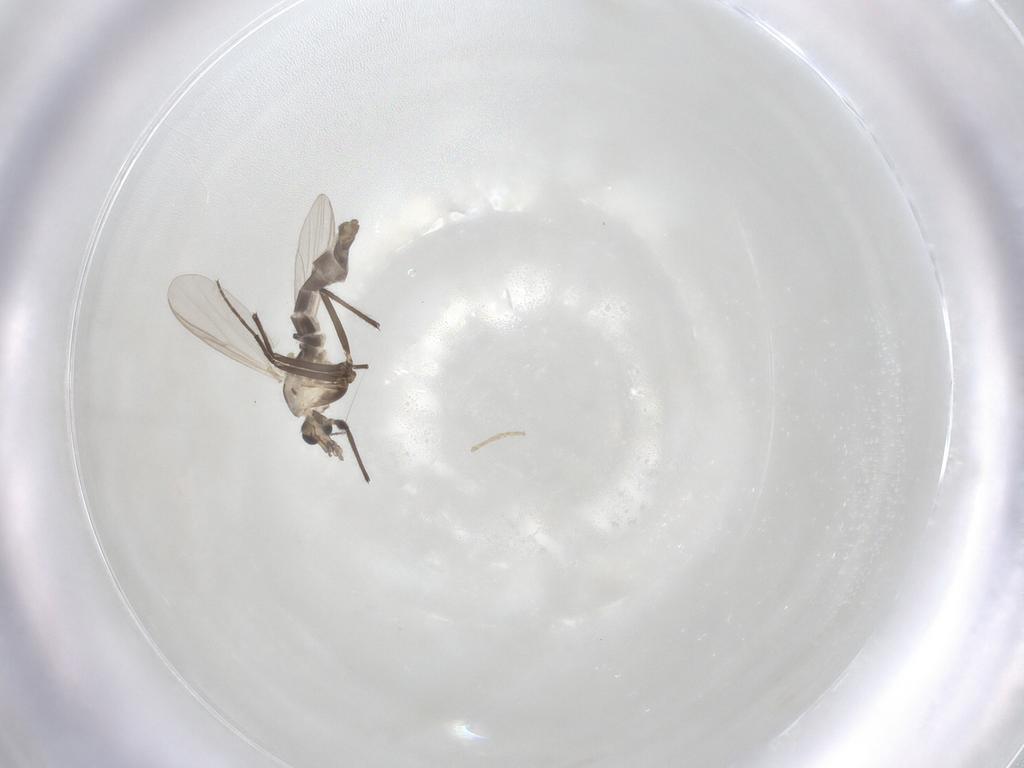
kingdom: Animalia
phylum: Arthropoda
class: Insecta
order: Diptera
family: Chironomidae
